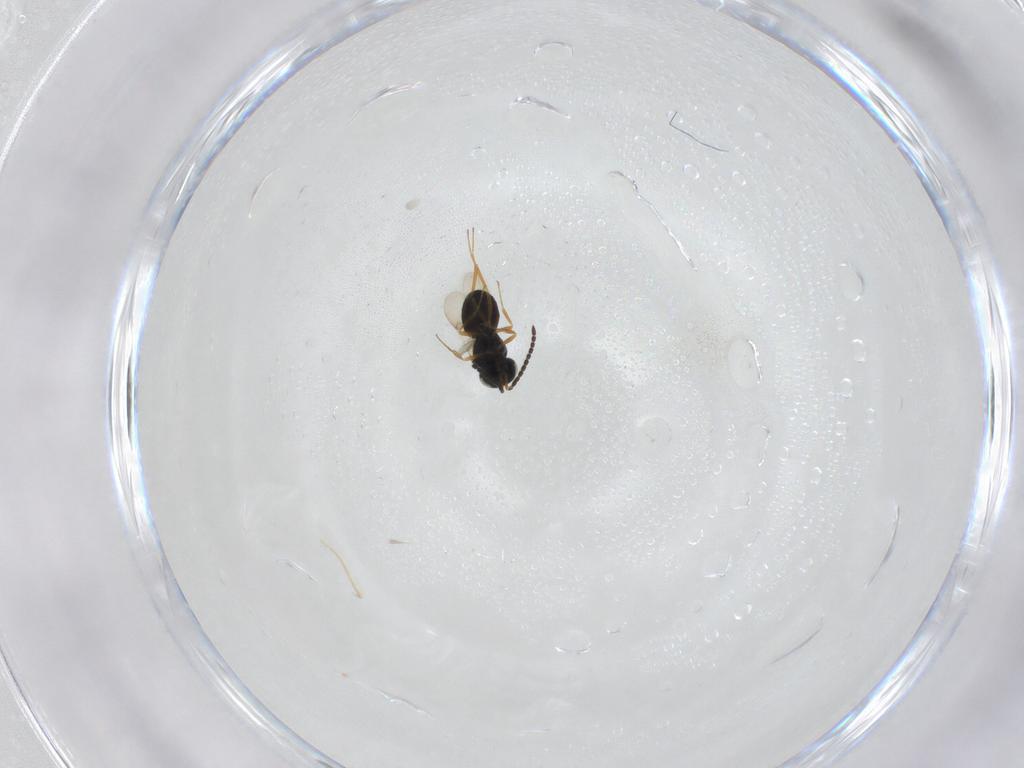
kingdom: Animalia
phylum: Arthropoda
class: Insecta
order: Hymenoptera
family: Scelionidae
